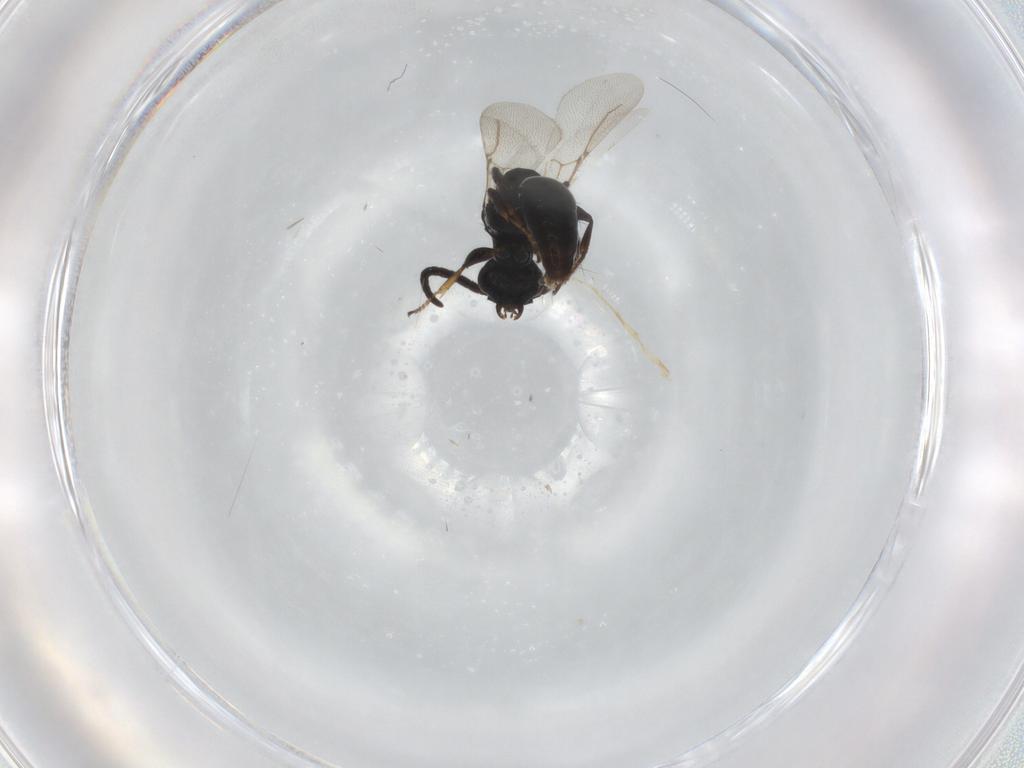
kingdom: Animalia
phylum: Arthropoda
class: Insecta
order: Hymenoptera
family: Bethylidae
